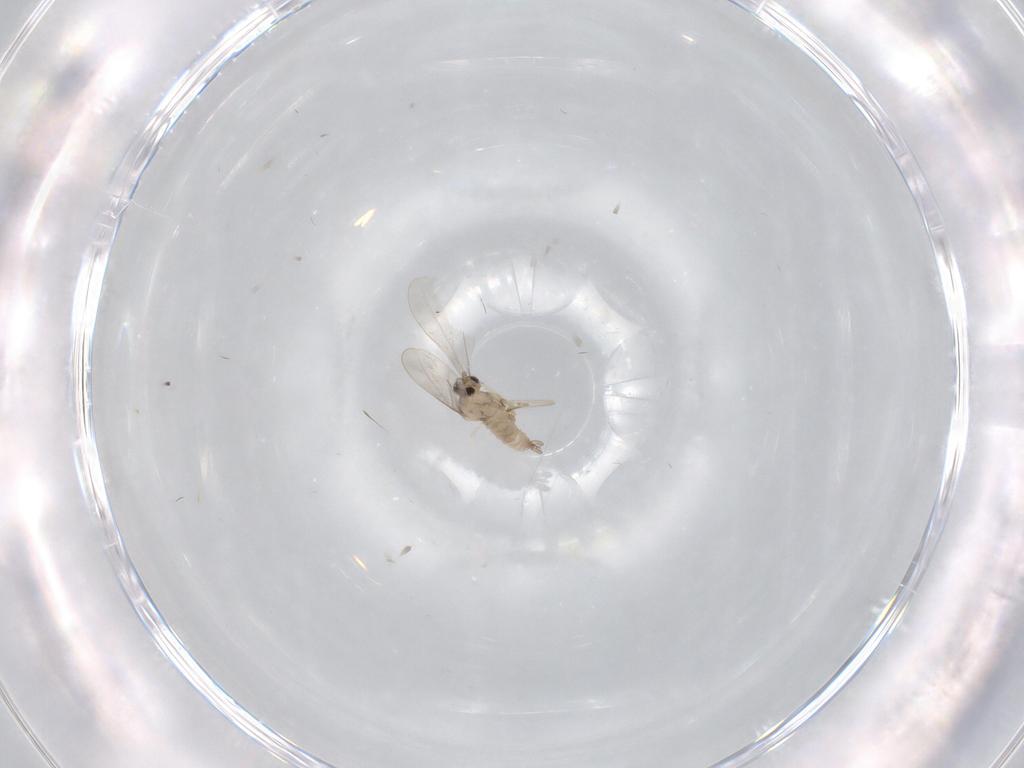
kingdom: Animalia
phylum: Arthropoda
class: Insecta
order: Diptera
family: Cecidomyiidae
